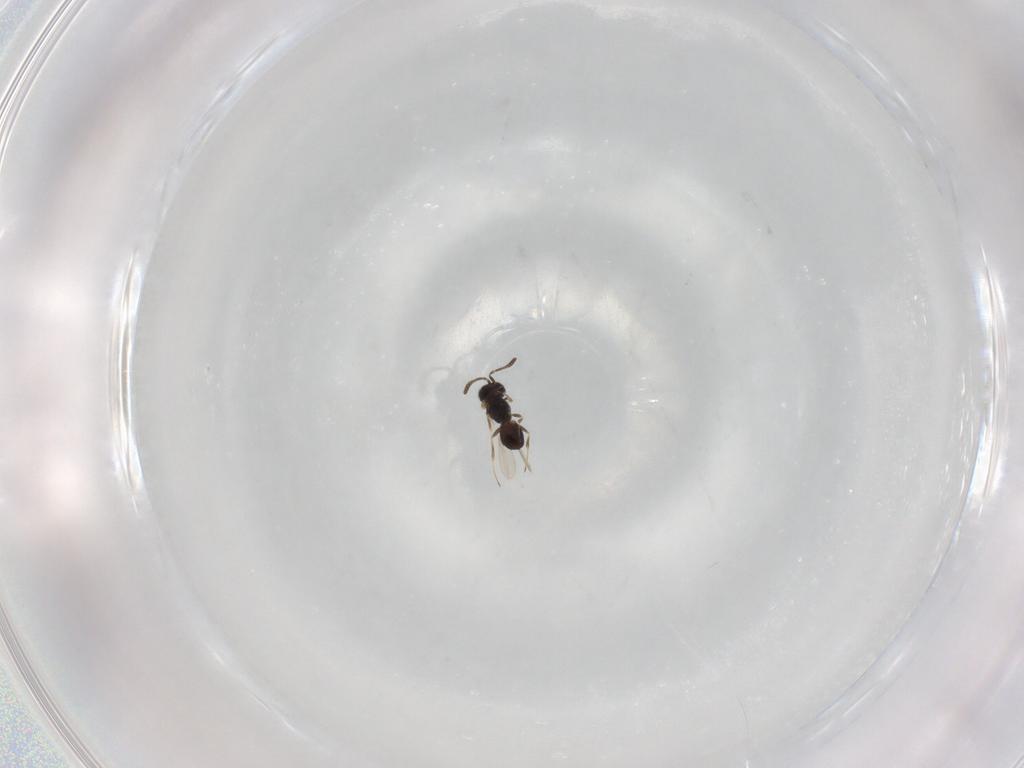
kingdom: Animalia
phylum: Arthropoda
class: Insecta
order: Hymenoptera
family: Scelionidae
